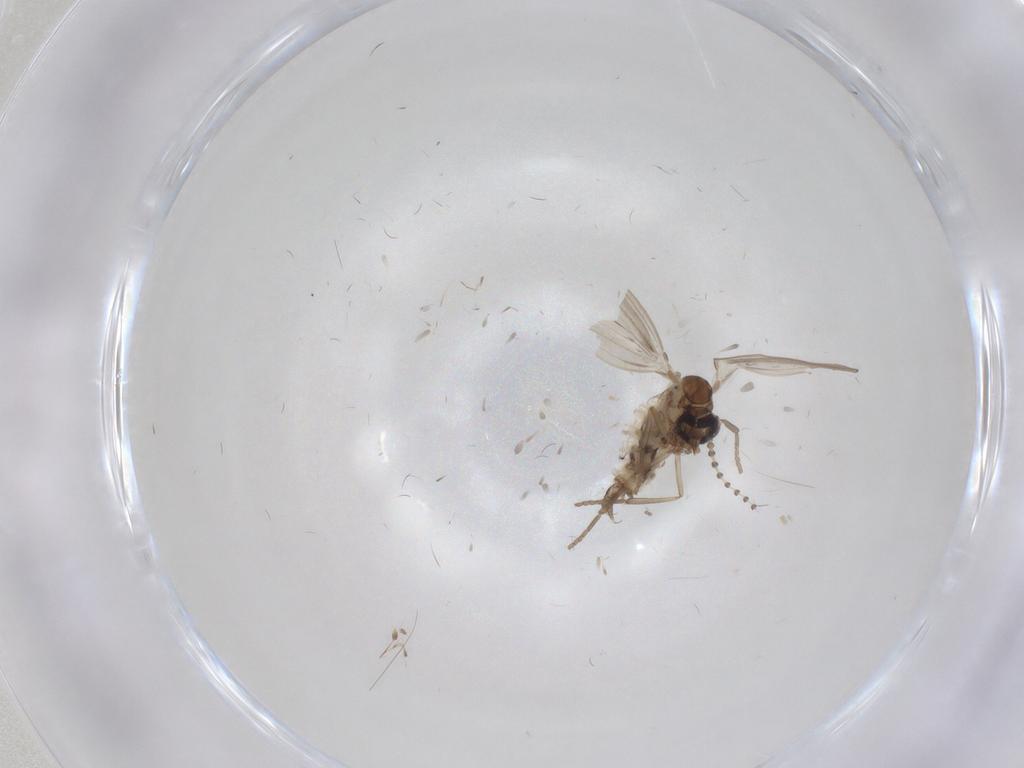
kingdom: Animalia
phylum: Arthropoda
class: Insecta
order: Diptera
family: Psychodidae
